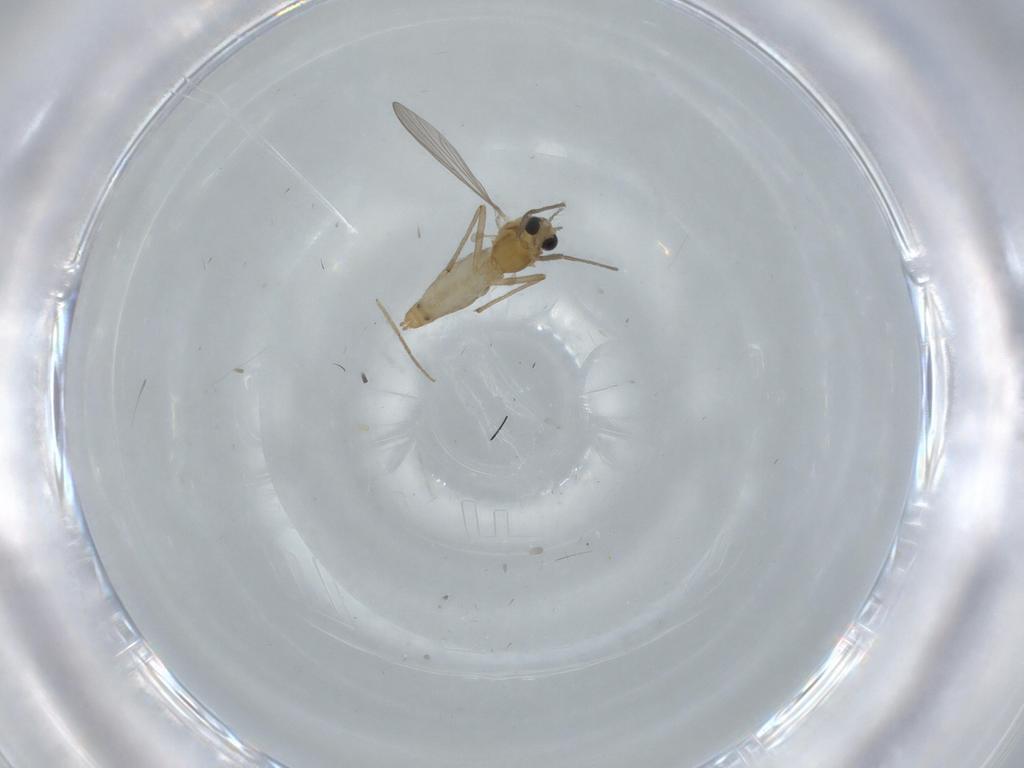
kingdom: Animalia
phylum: Arthropoda
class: Insecta
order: Diptera
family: Chironomidae
